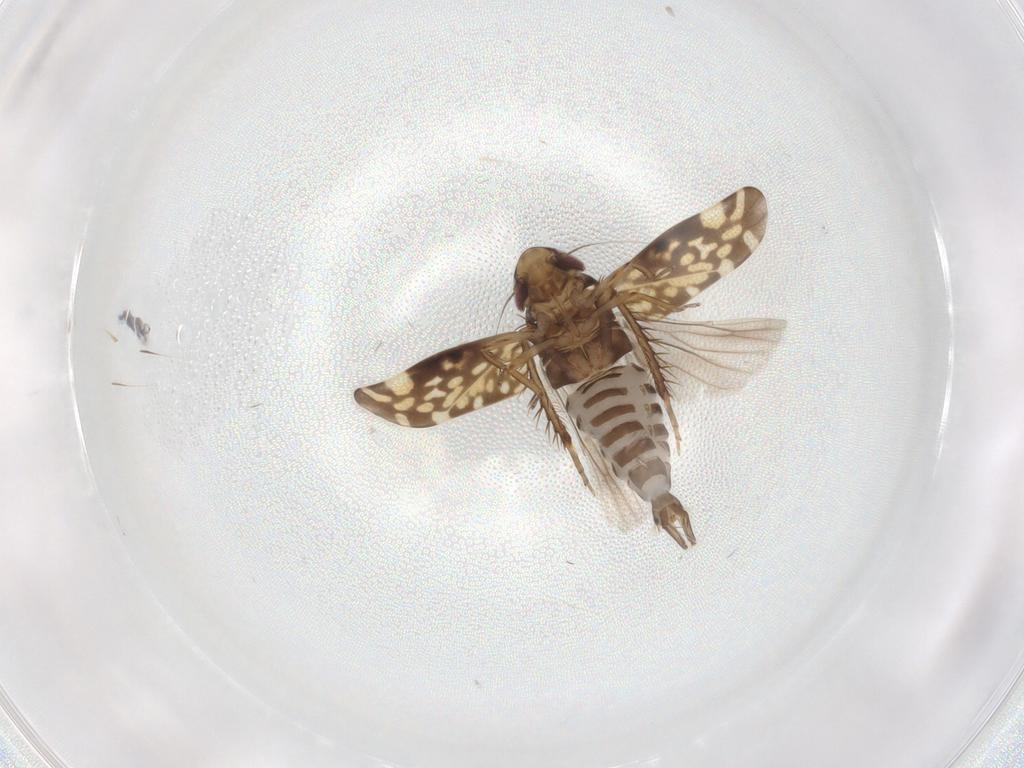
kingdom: Animalia
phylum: Arthropoda
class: Insecta
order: Hemiptera
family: Cicadellidae
